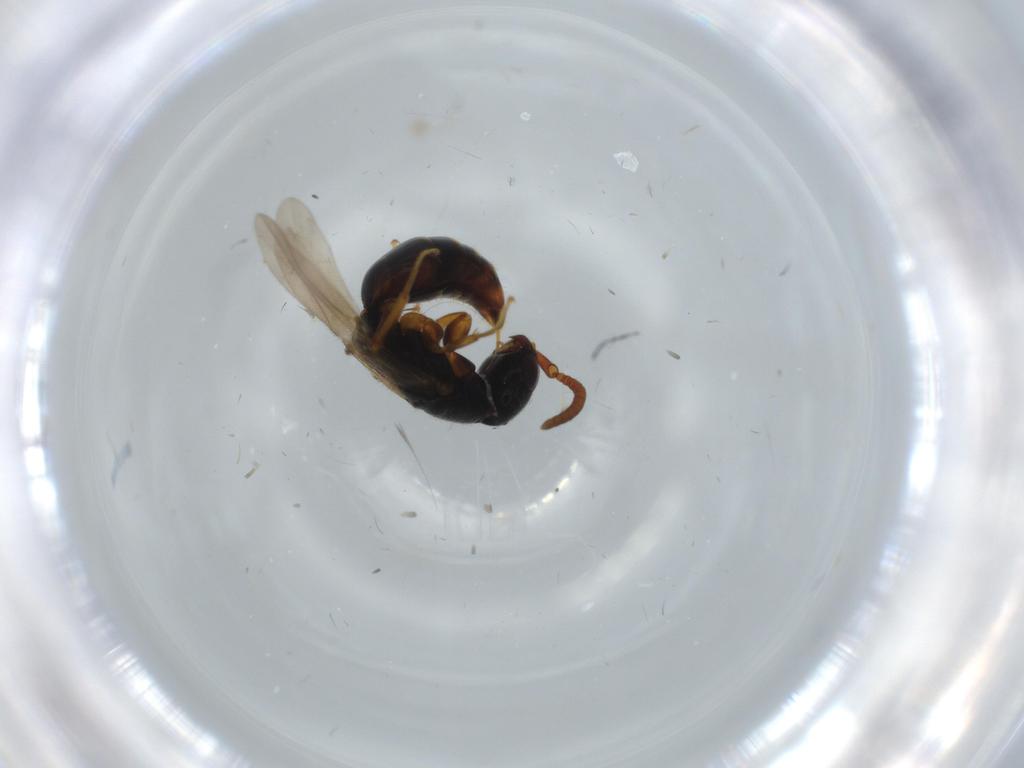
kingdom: Animalia
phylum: Arthropoda
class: Insecta
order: Hymenoptera
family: Bethylidae
